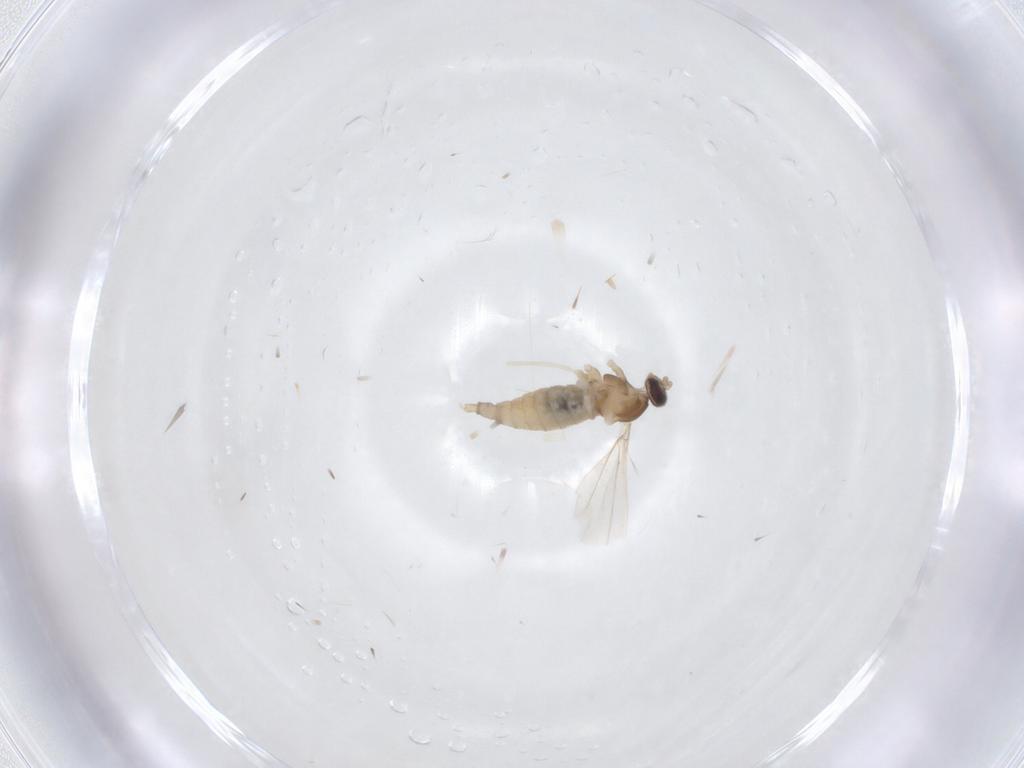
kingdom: Animalia
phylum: Arthropoda
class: Insecta
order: Diptera
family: Cecidomyiidae
